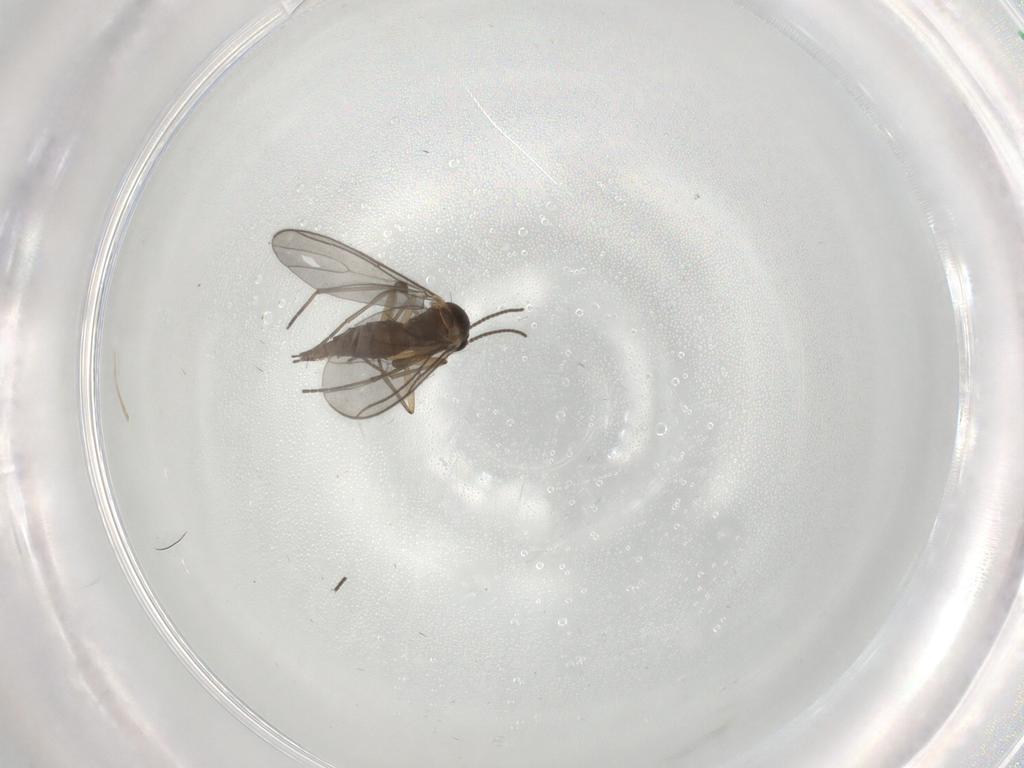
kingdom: Animalia
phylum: Arthropoda
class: Insecta
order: Diptera
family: Sciaridae
